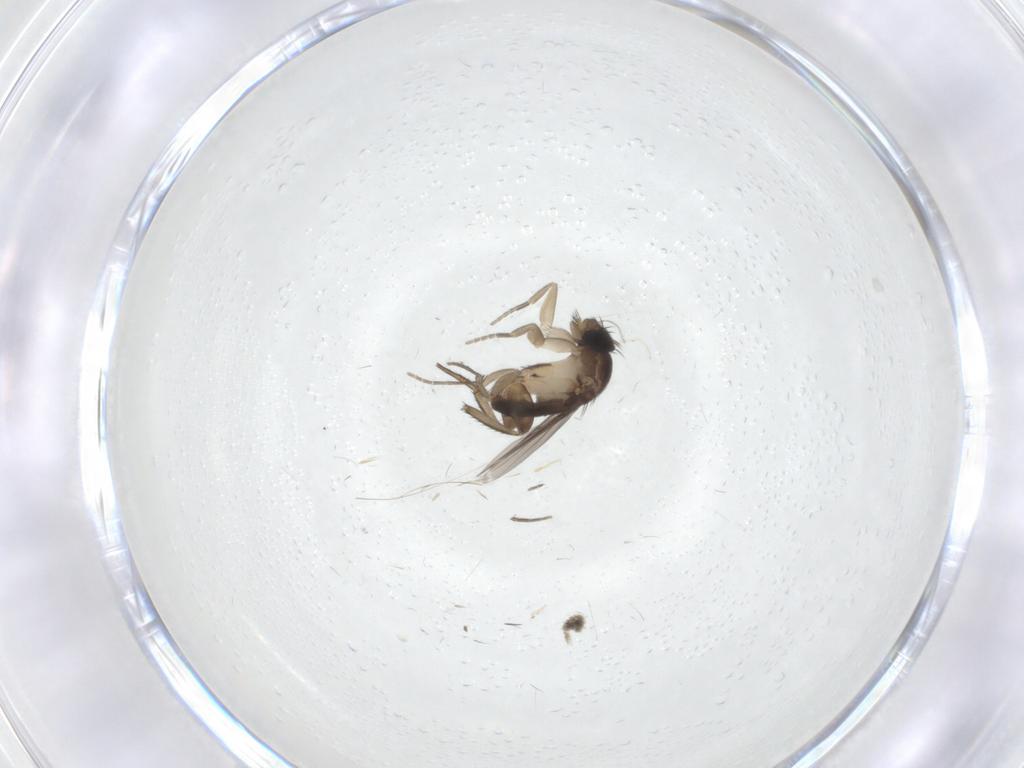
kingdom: Animalia
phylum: Arthropoda
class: Insecta
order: Diptera
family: Phoridae
